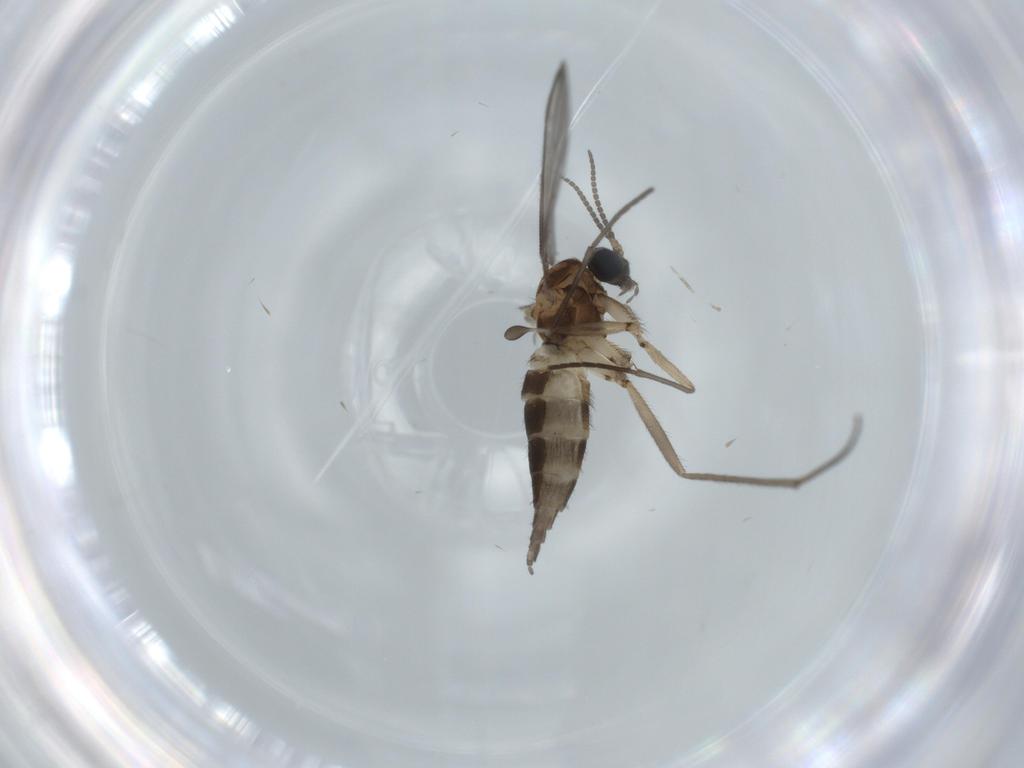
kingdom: Animalia
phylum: Arthropoda
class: Insecta
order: Diptera
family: Sciaridae
